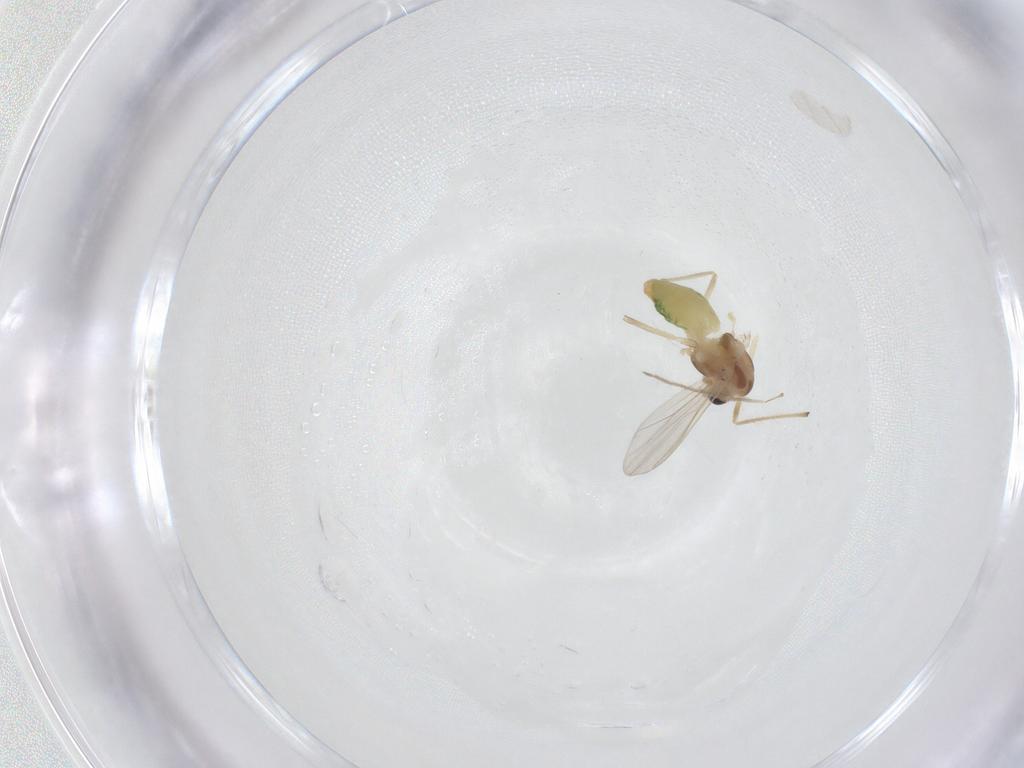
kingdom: Animalia
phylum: Arthropoda
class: Insecta
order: Diptera
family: Chironomidae
